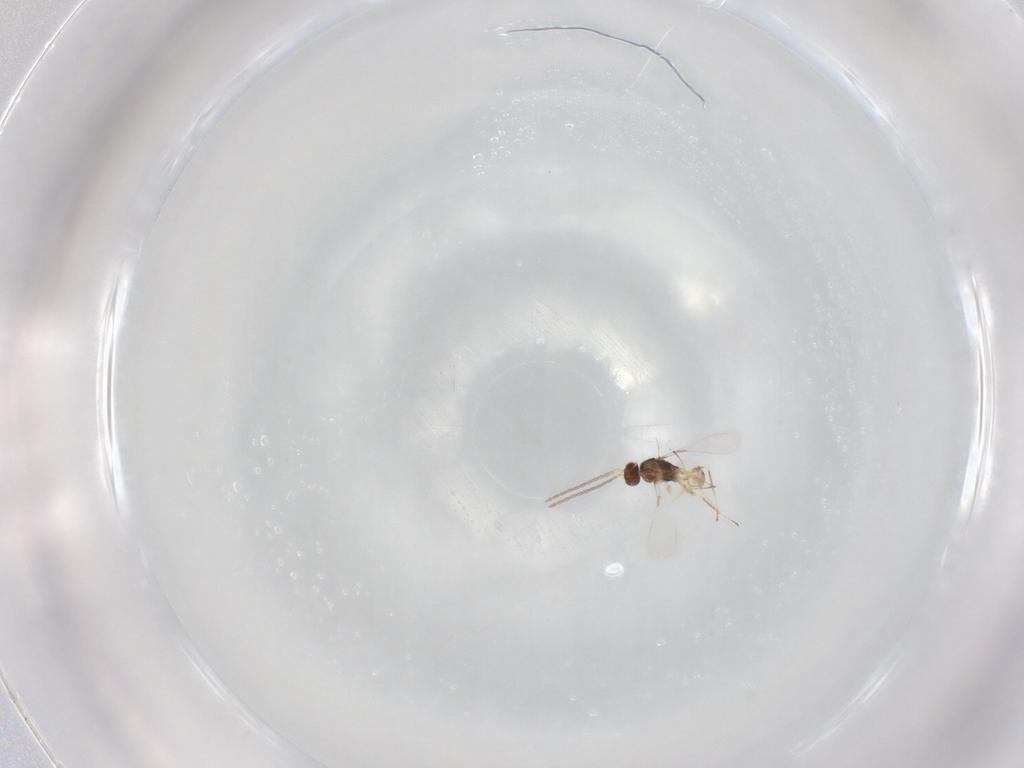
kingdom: Animalia
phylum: Arthropoda
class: Insecta
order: Hymenoptera
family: Mymaridae
